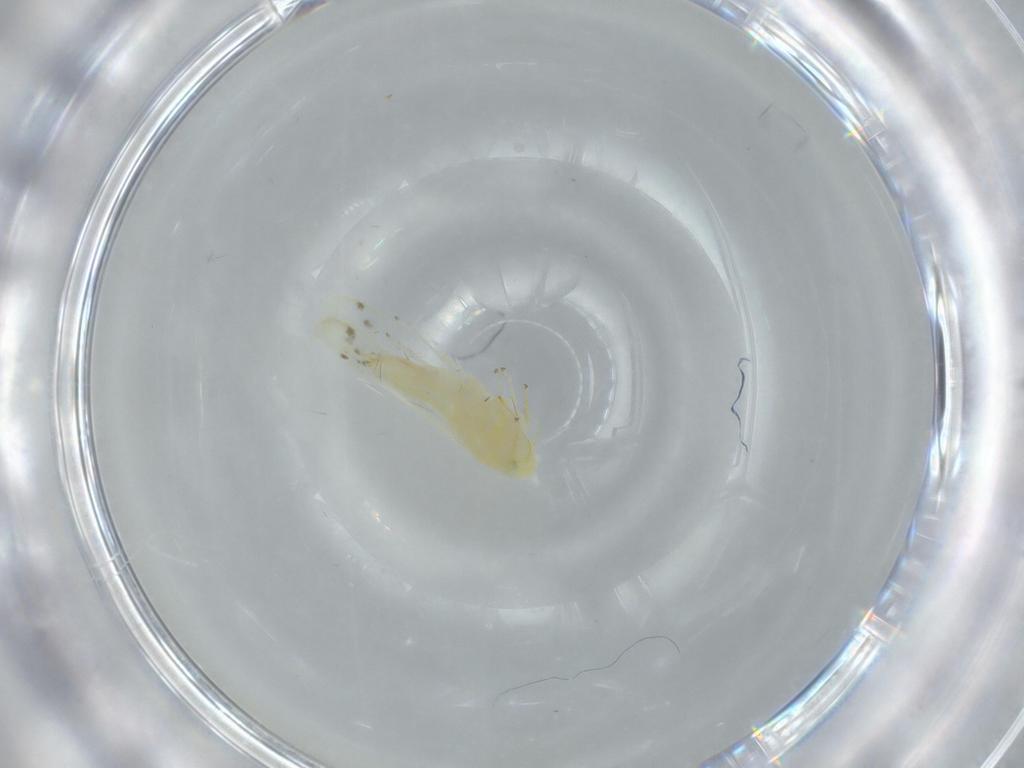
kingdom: Animalia
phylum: Arthropoda
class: Insecta
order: Hemiptera
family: Cicadellidae
